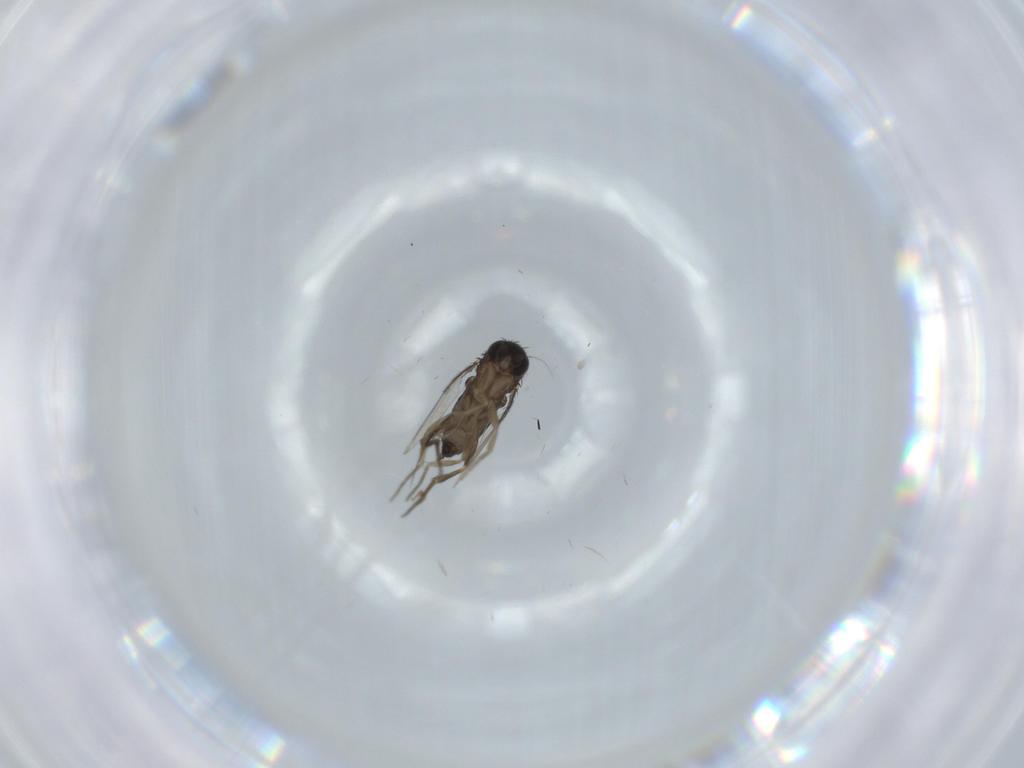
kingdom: Animalia
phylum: Arthropoda
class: Insecta
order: Diptera
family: Phoridae
